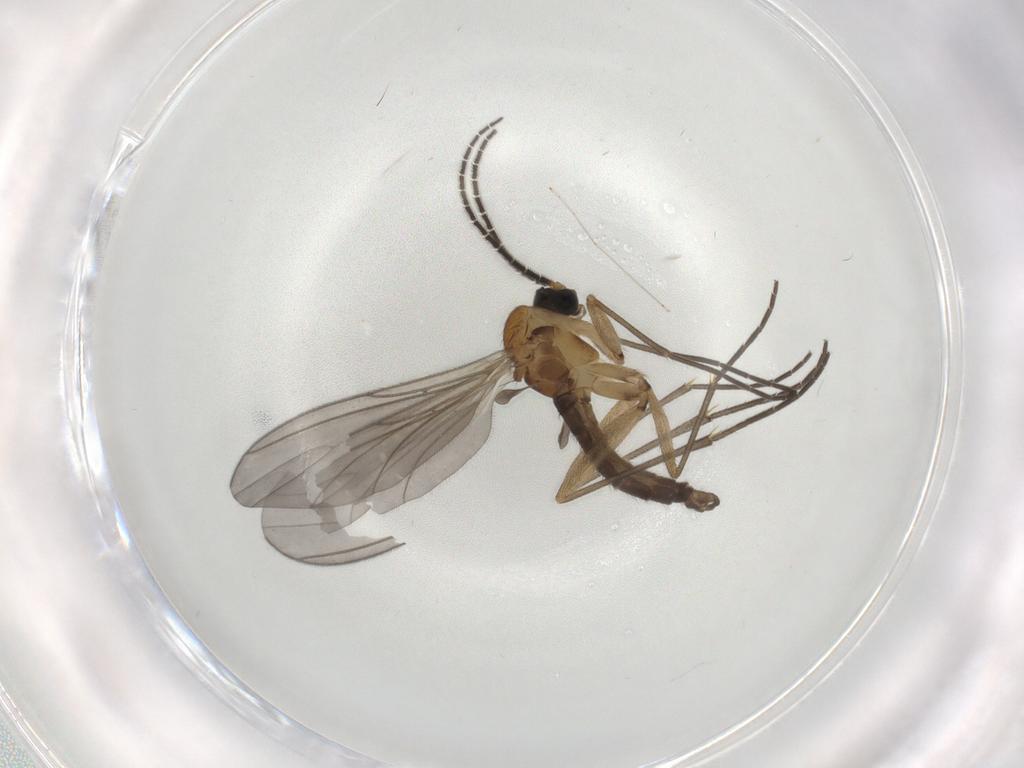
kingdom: Animalia
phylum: Arthropoda
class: Insecta
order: Diptera
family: Sciaridae
